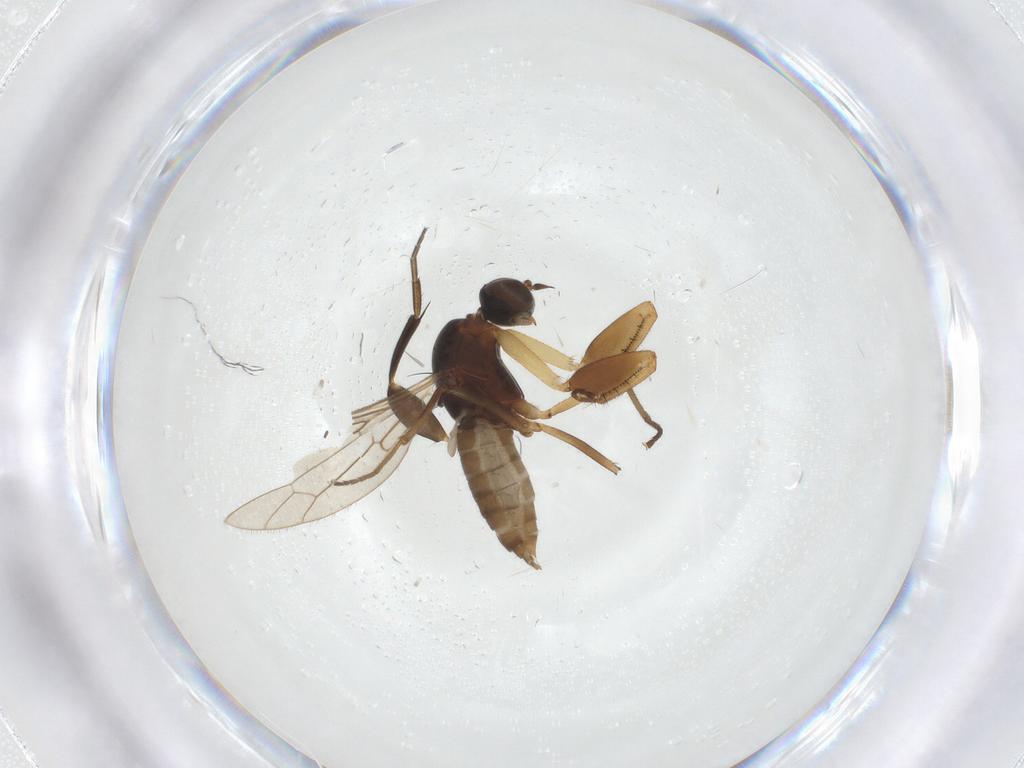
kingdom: Animalia
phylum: Arthropoda
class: Insecta
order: Diptera
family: Empididae
